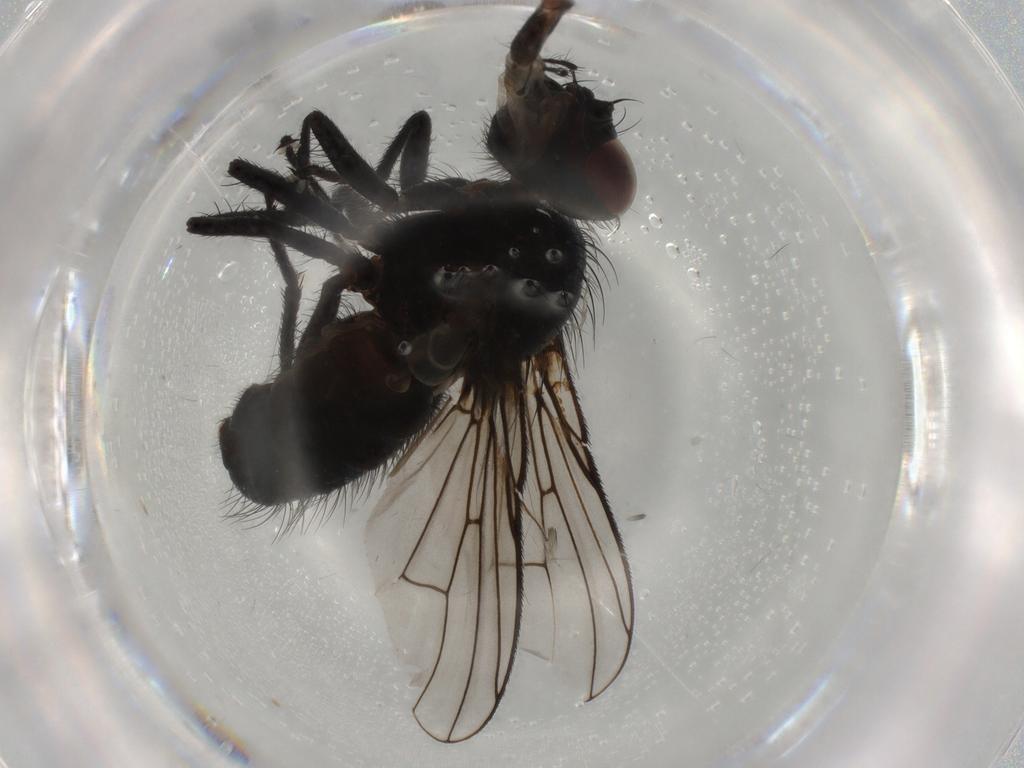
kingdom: Animalia
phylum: Arthropoda
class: Insecta
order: Diptera
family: Muscidae
